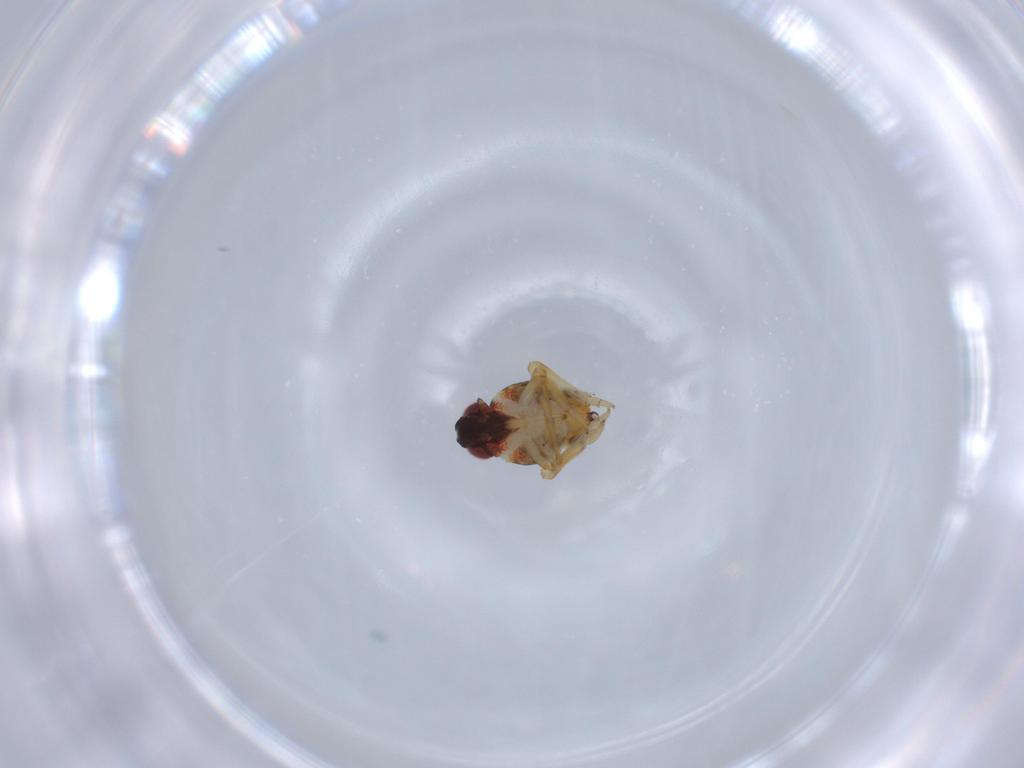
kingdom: Animalia
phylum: Arthropoda
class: Insecta
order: Hemiptera
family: Issidae
